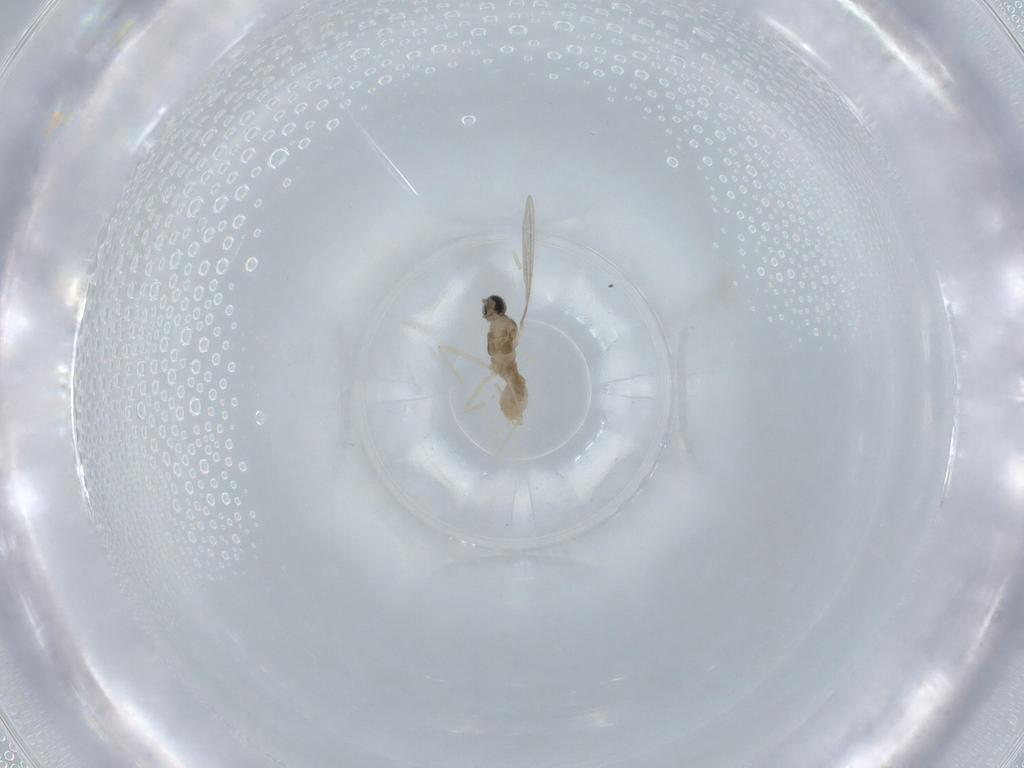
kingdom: Animalia
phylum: Arthropoda
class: Insecta
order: Diptera
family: Cecidomyiidae
